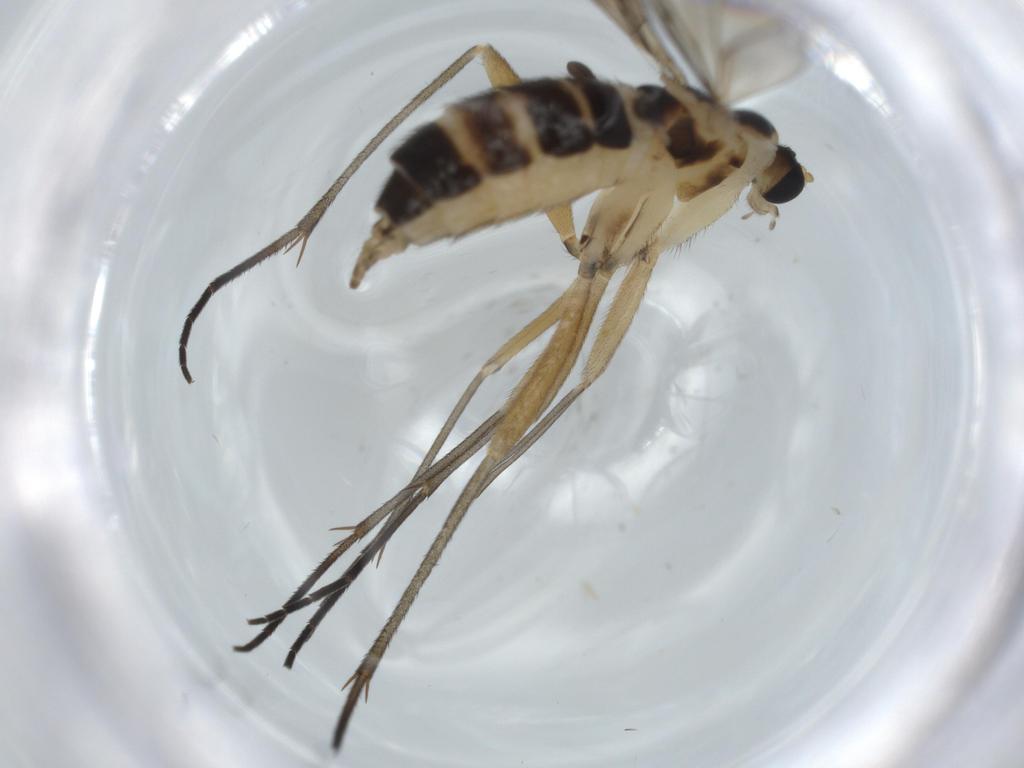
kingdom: Animalia
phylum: Arthropoda
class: Insecta
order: Diptera
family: Sciaridae
